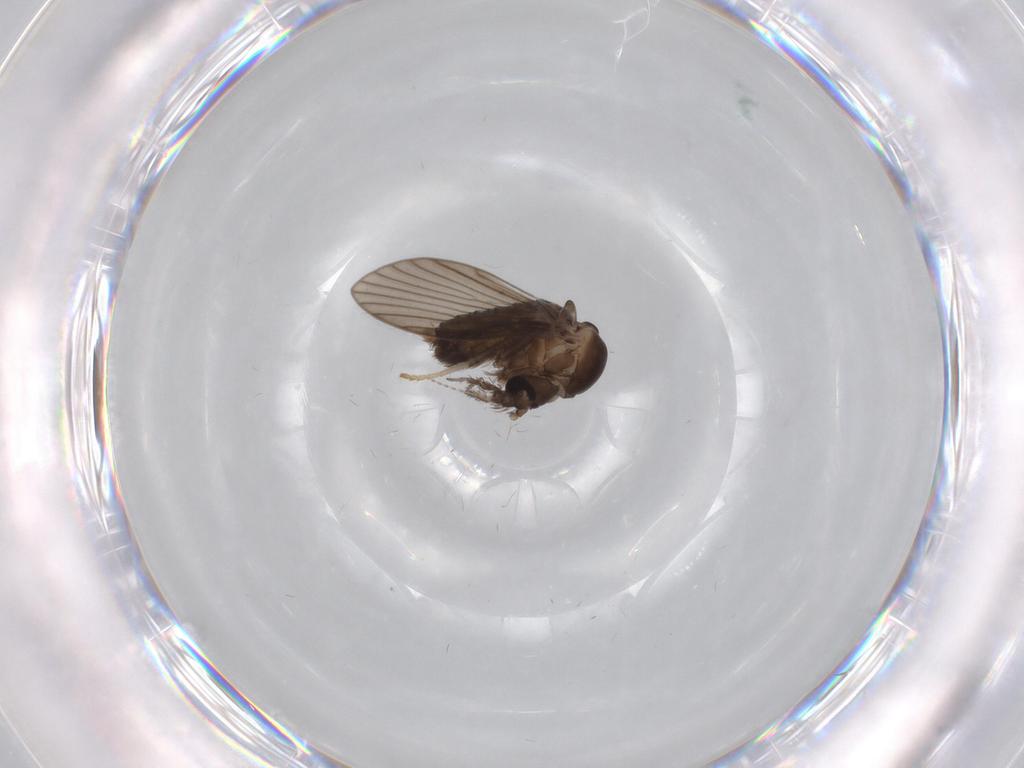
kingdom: Animalia
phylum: Arthropoda
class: Insecta
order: Diptera
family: Psychodidae
